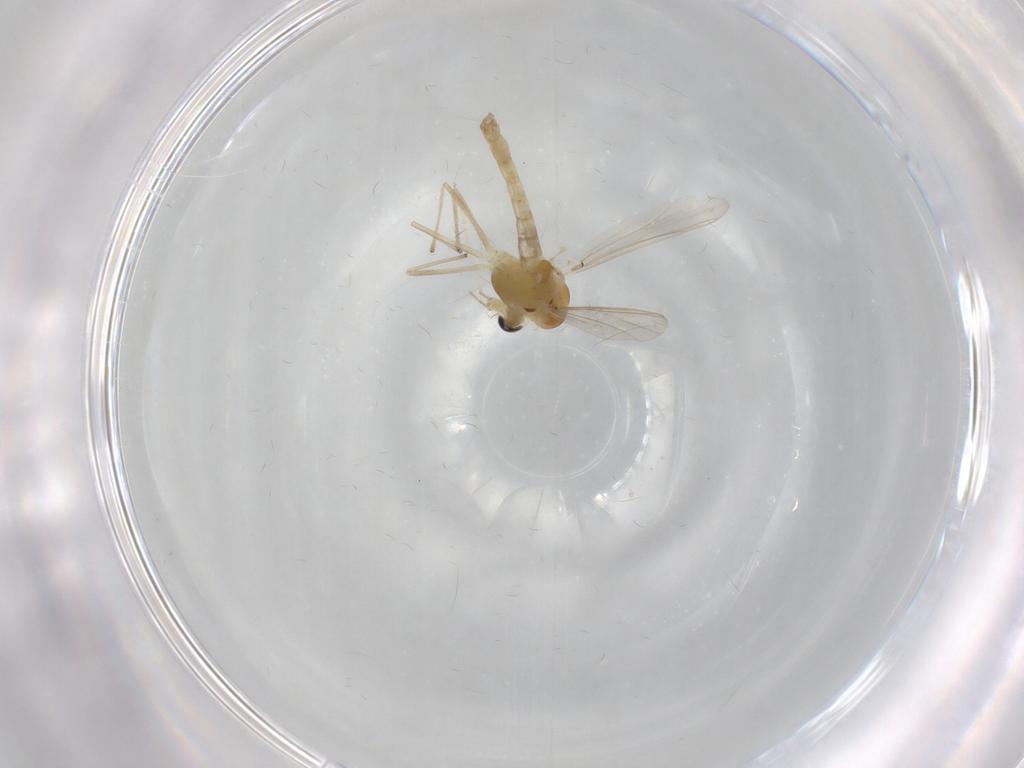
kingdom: Animalia
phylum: Arthropoda
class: Insecta
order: Diptera
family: Chironomidae
